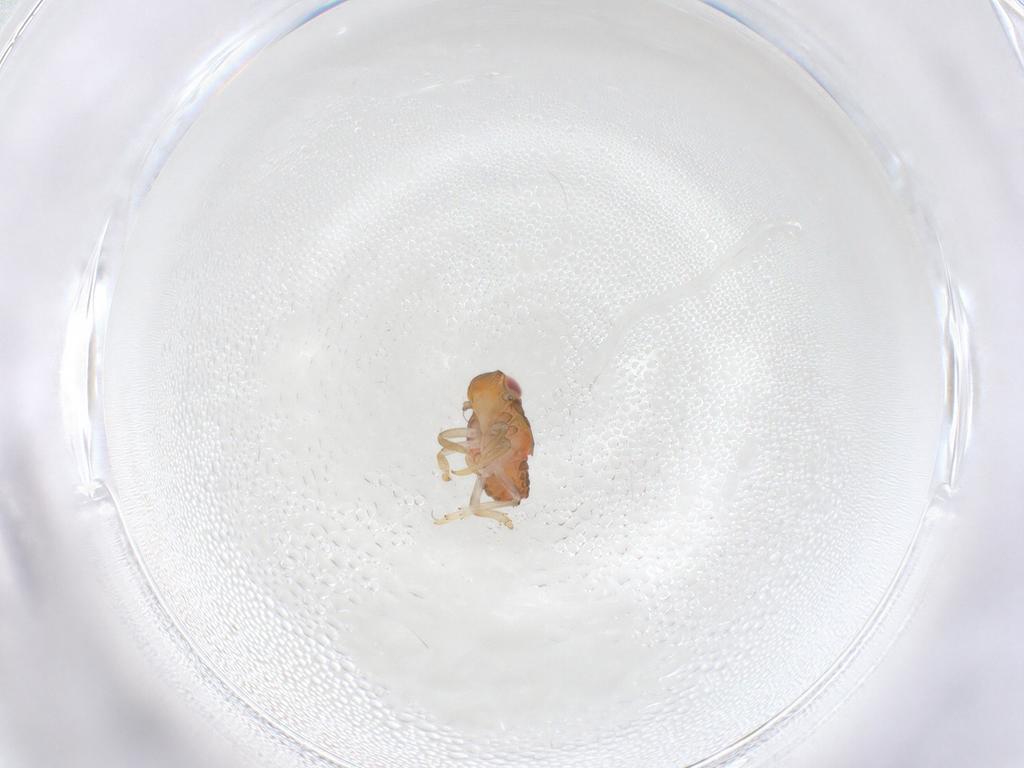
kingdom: Animalia
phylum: Arthropoda
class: Insecta
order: Hemiptera
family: Issidae
